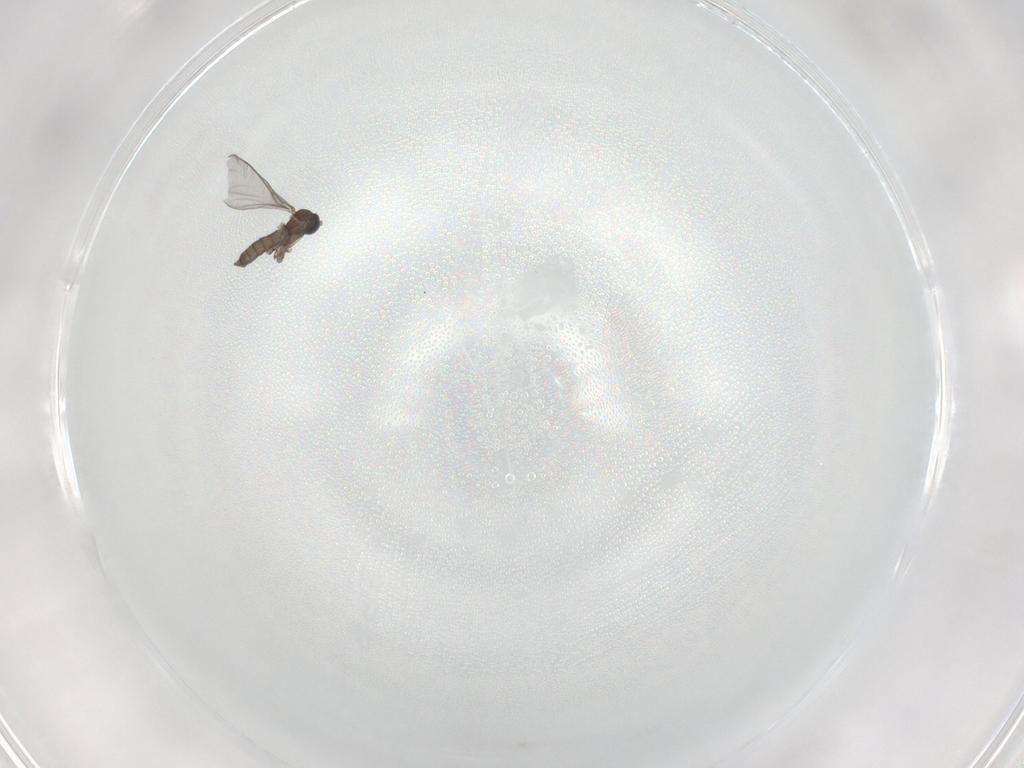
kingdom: Animalia
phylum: Arthropoda
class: Insecta
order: Diptera
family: Sciaridae
